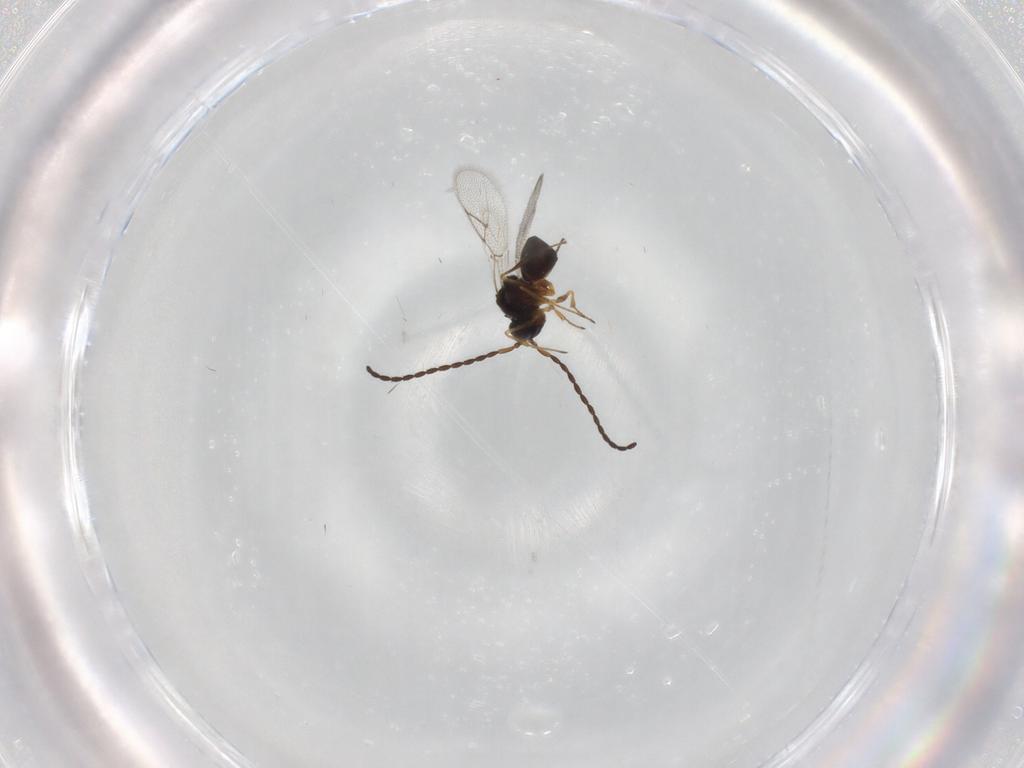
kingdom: Animalia
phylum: Arthropoda
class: Insecta
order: Hymenoptera
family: Figitidae
